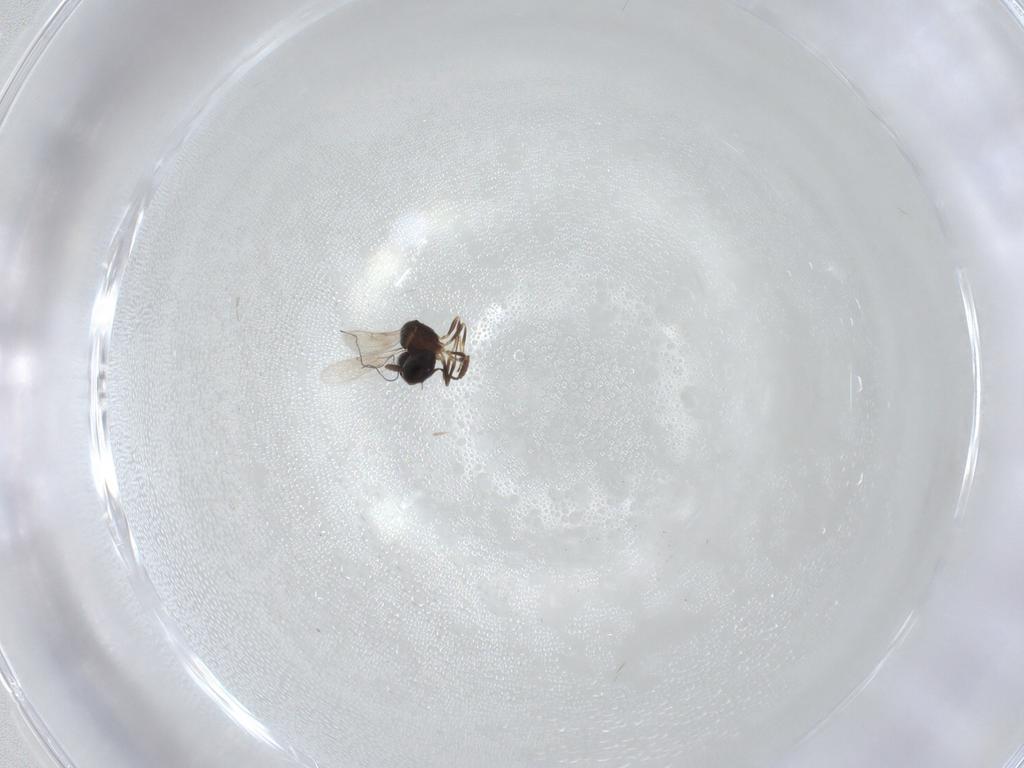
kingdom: Animalia
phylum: Arthropoda
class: Insecta
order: Hymenoptera
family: Scelionidae
